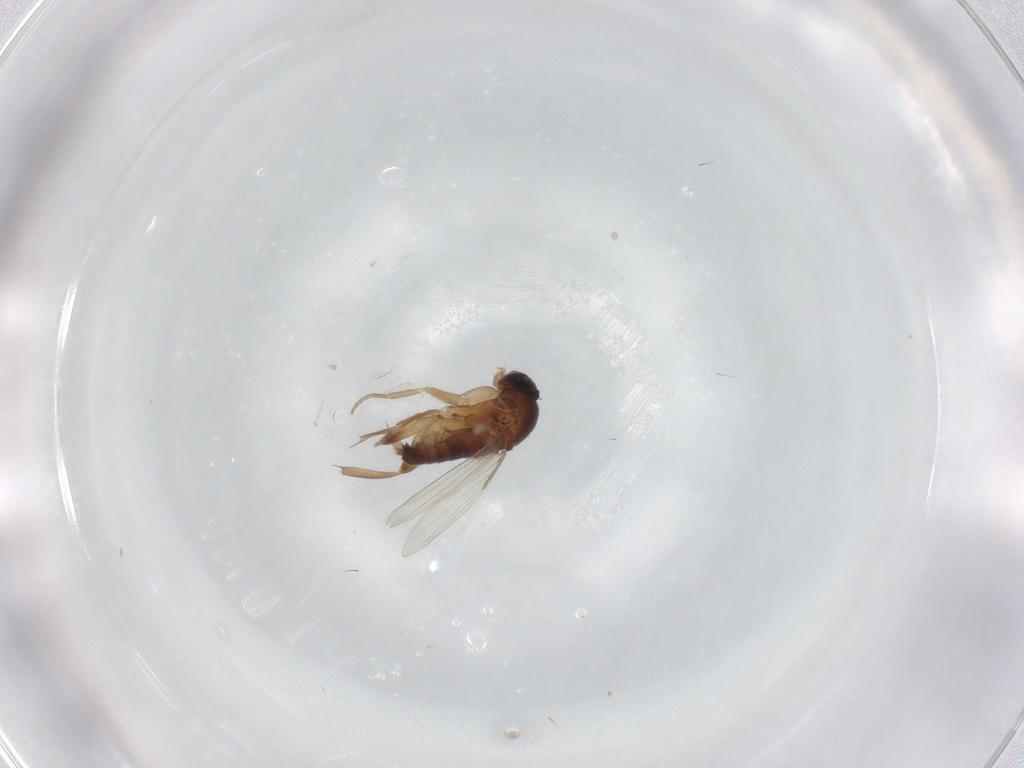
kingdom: Animalia
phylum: Arthropoda
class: Insecta
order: Diptera
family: Phoridae
